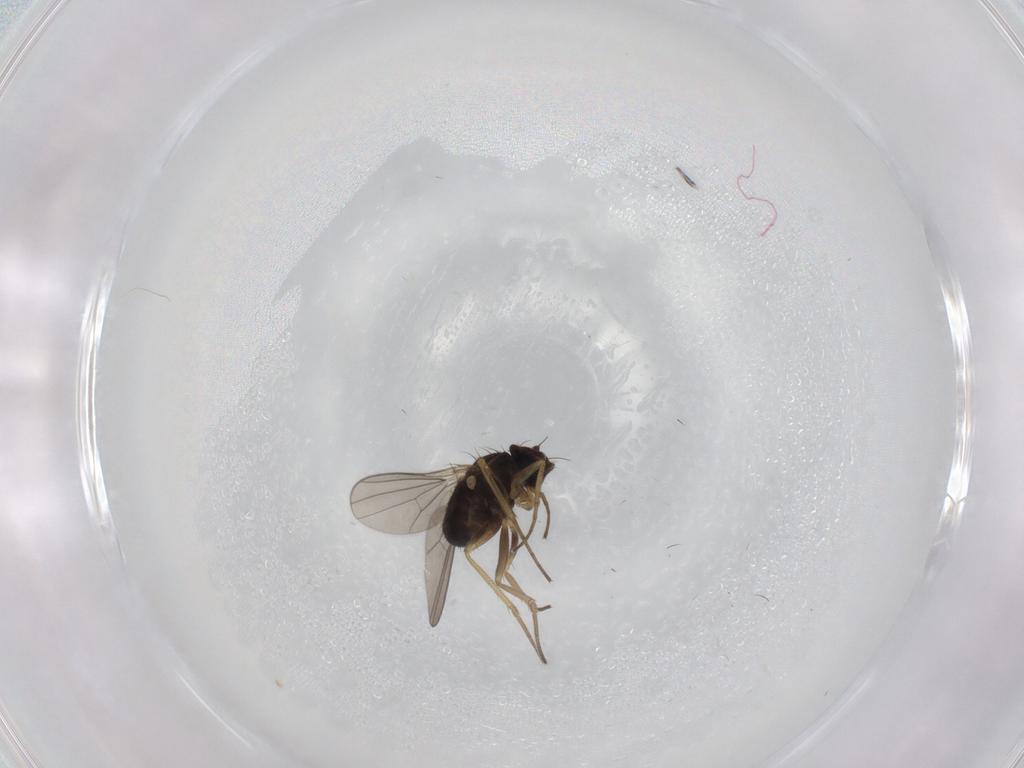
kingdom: Animalia
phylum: Arthropoda
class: Insecta
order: Diptera
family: Dolichopodidae
